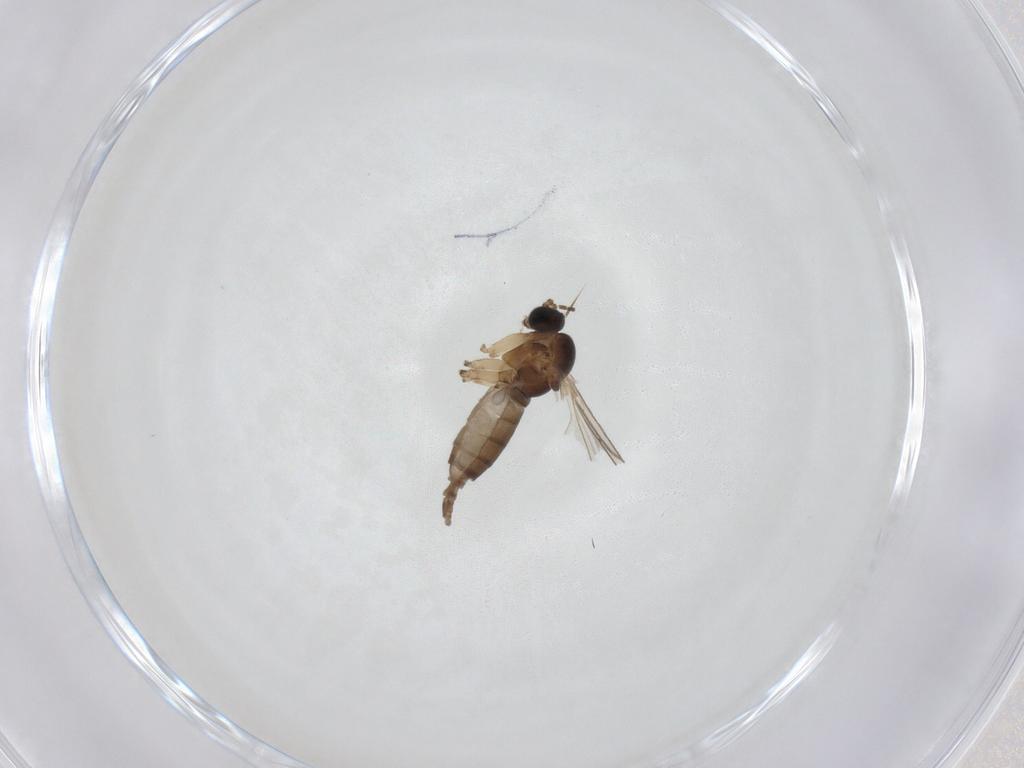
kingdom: Animalia
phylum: Arthropoda
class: Insecta
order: Diptera
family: Sciaridae
